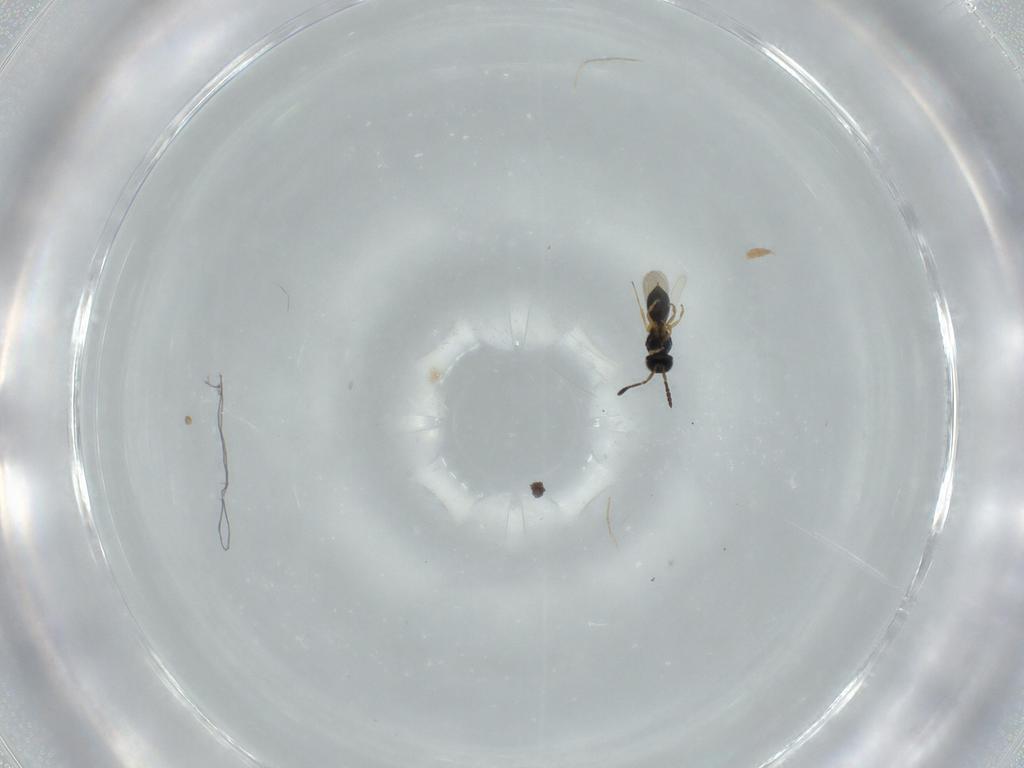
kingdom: Animalia
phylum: Arthropoda
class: Insecta
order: Hymenoptera
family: Scelionidae
